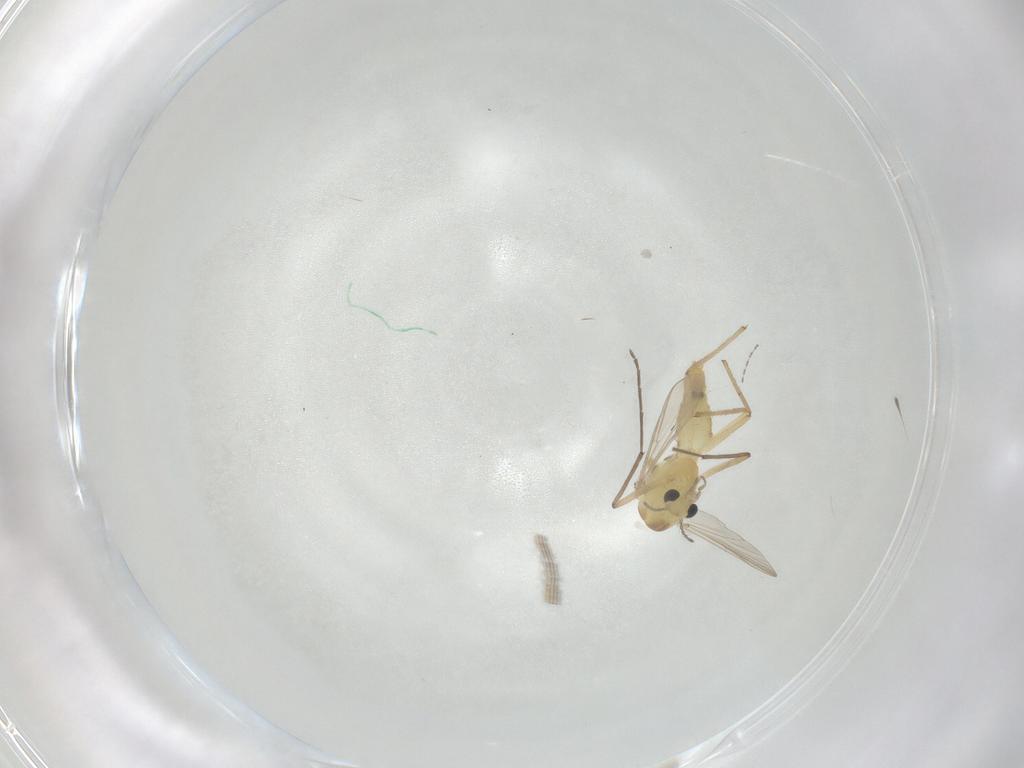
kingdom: Animalia
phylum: Arthropoda
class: Insecta
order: Diptera
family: Chironomidae
